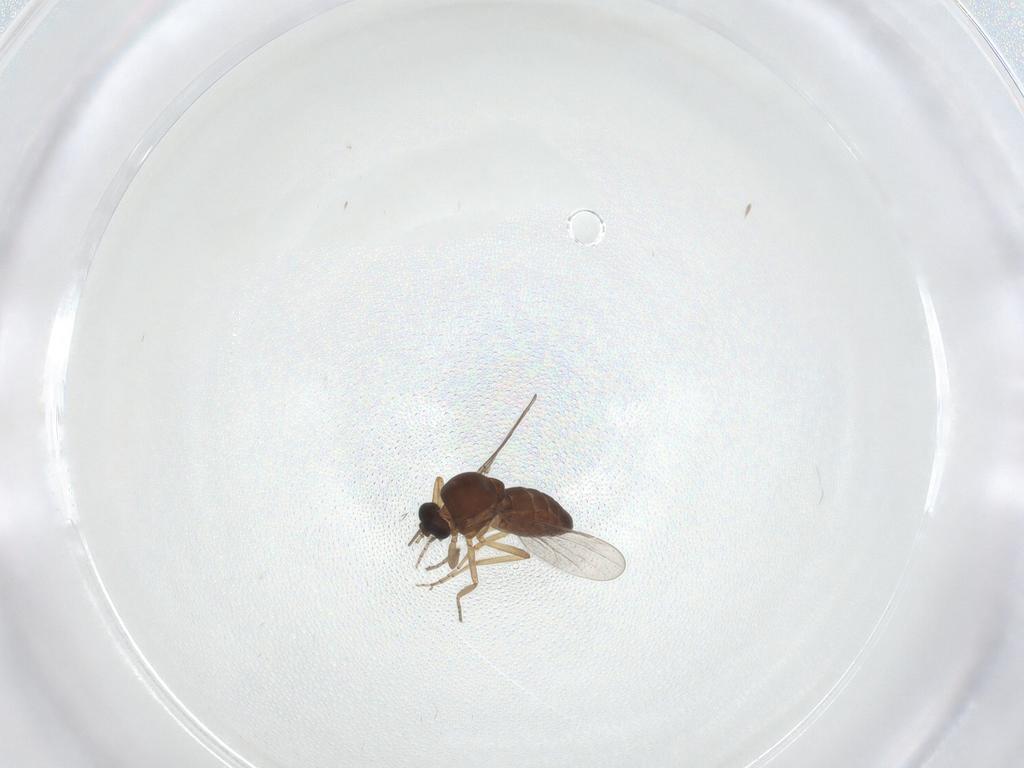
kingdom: Animalia
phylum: Arthropoda
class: Insecta
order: Diptera
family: Ceratopogonidae
